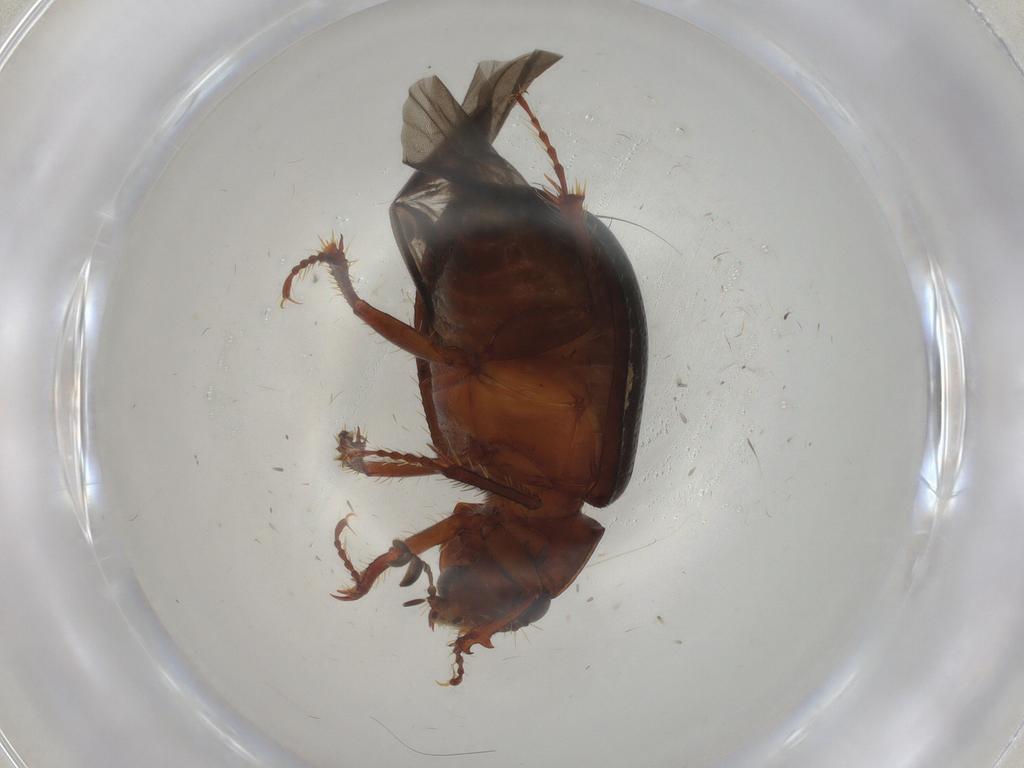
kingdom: Animalia
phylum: Arthropoda
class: Insecta
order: Coleoptera
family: Hybosoridae
